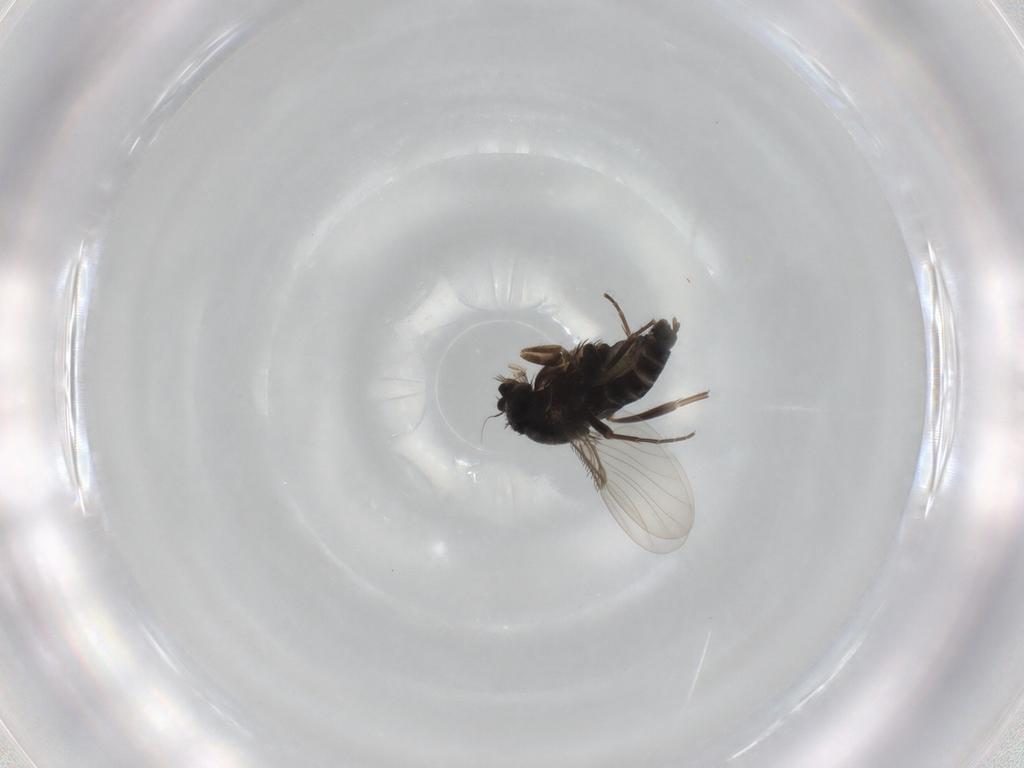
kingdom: Animalia
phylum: Arthropoda
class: Insecta
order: Diptera
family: Phoridae
